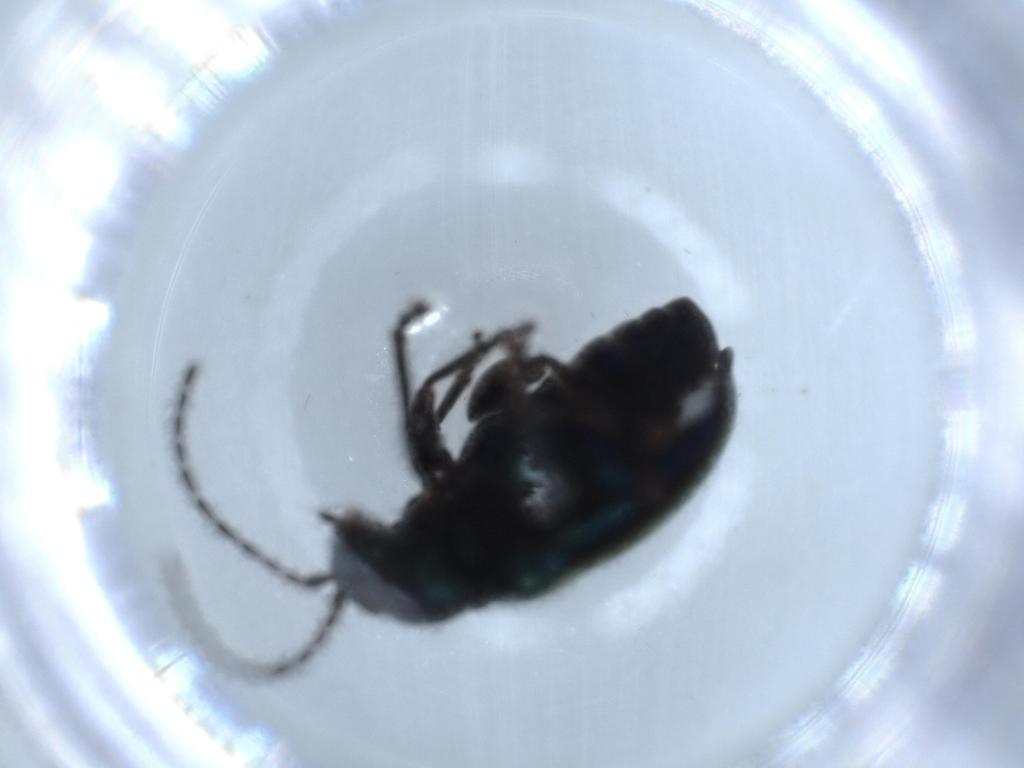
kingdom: Animalia
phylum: Arthropoda
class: Insecta
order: Coleoptera
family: Chrysomelidae
